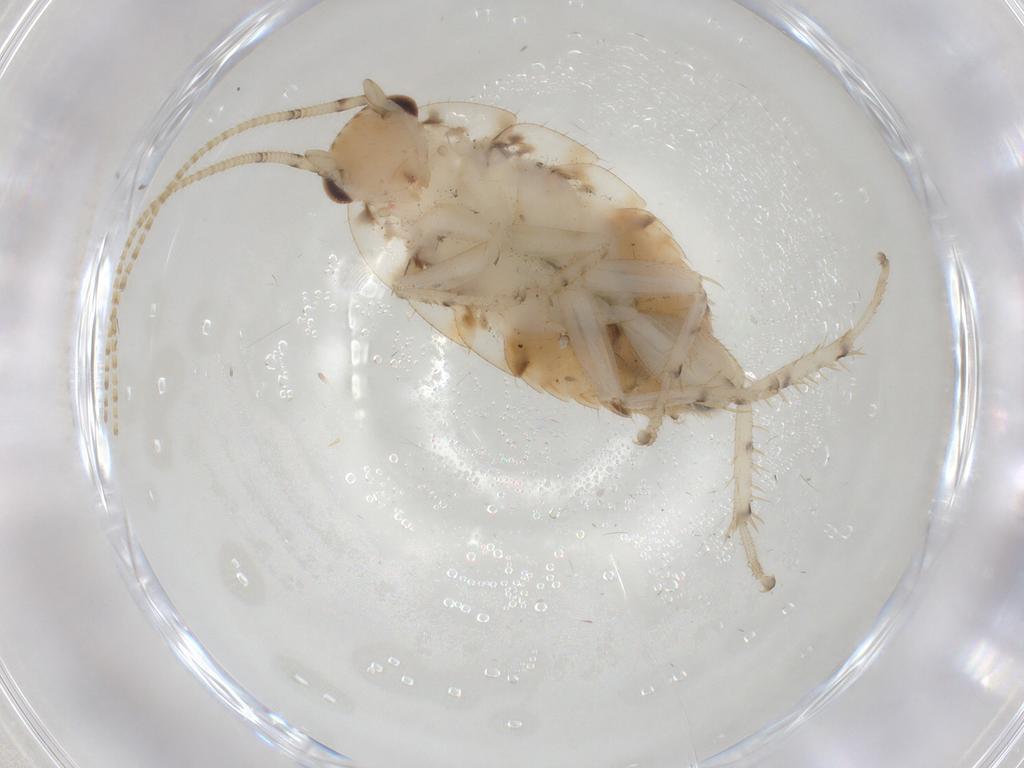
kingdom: Animalia
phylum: Arthropoda
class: Insecta
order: Blattodea
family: Ectobiidae
